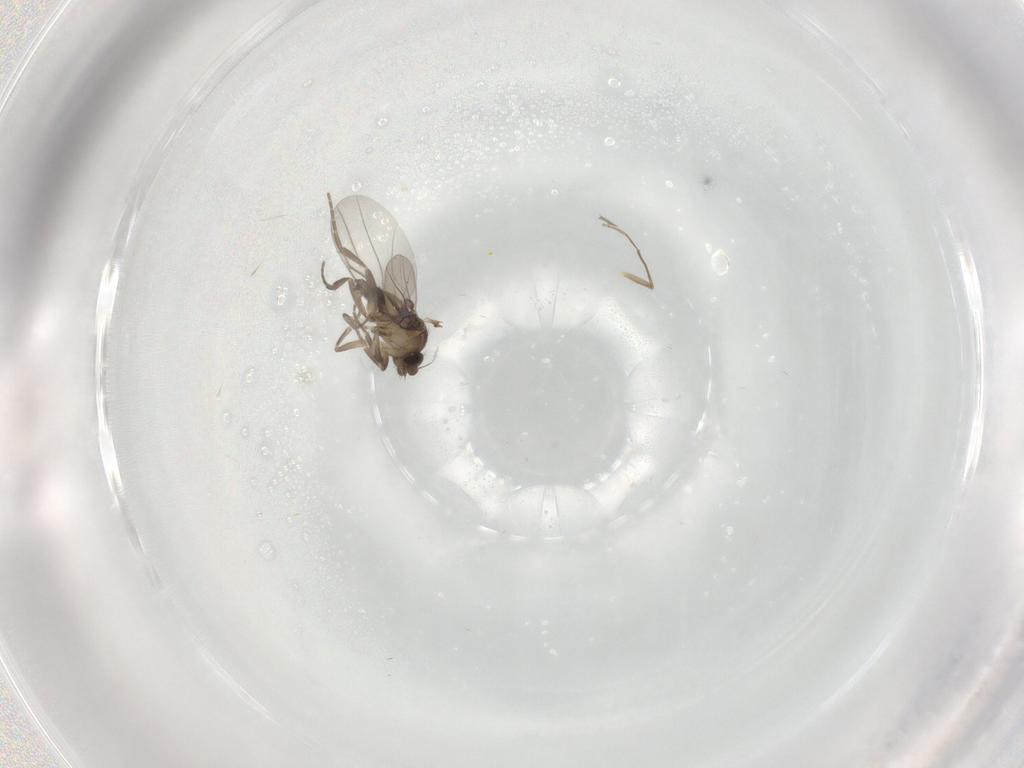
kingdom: Animalia
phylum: Arthropoda
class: Insecta
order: Diptera
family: Chironomidae
